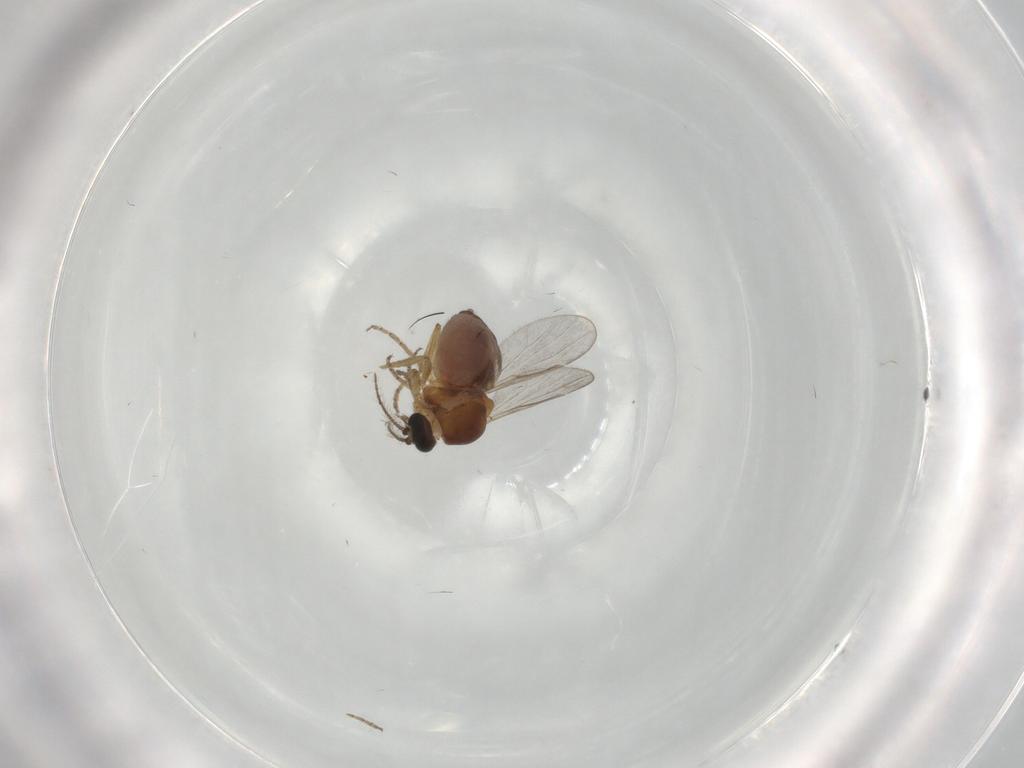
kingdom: Animalia
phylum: Arthropoda
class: Insecta
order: Diptera
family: Ceratopogonidae
